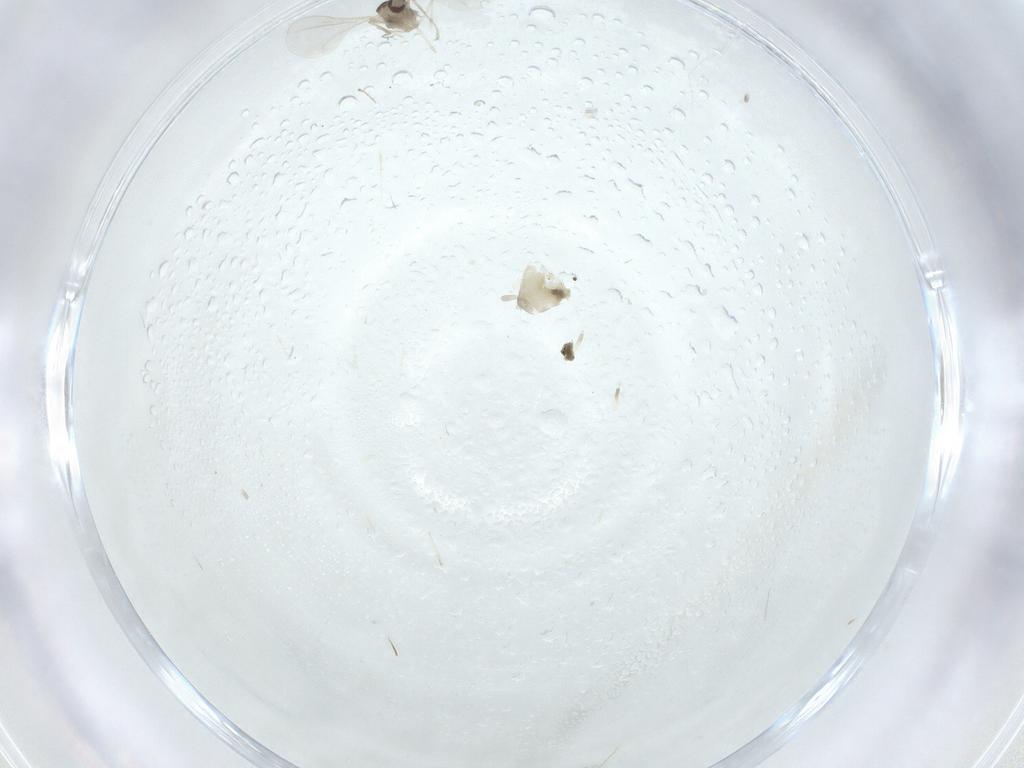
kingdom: Animalia
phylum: Arthropoda
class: Insecta
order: Diptera
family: Cecidomyiidae
